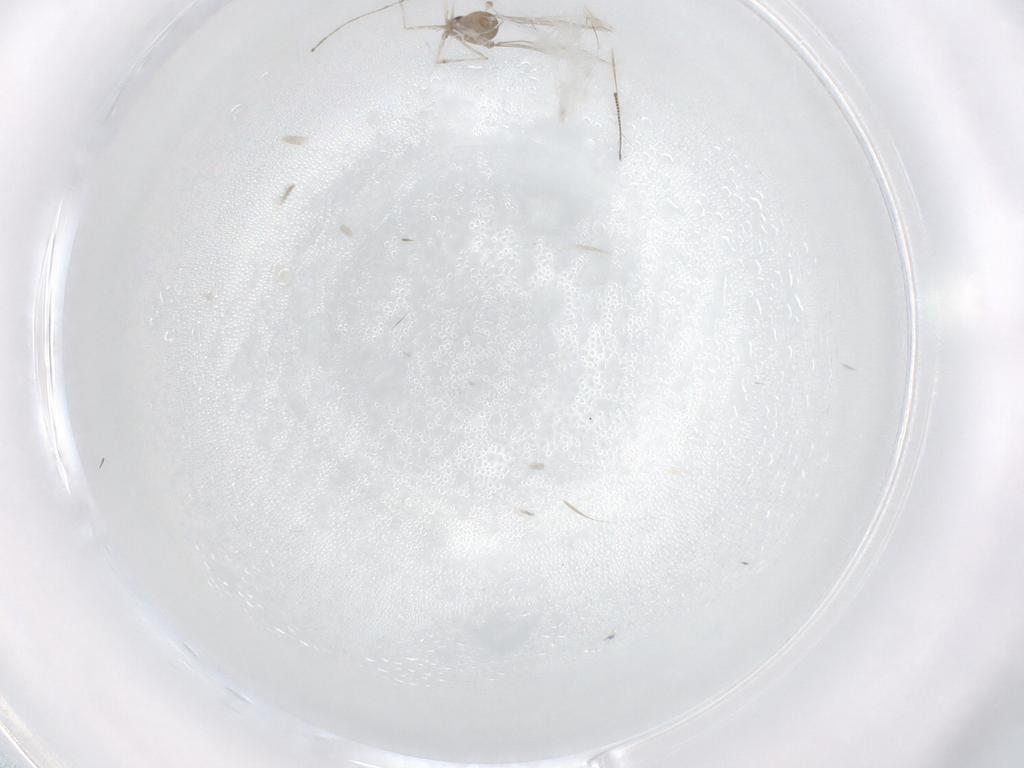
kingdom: Animalia
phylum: Arthropoda
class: Insecta
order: Diptera
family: Cecidomyiidae
